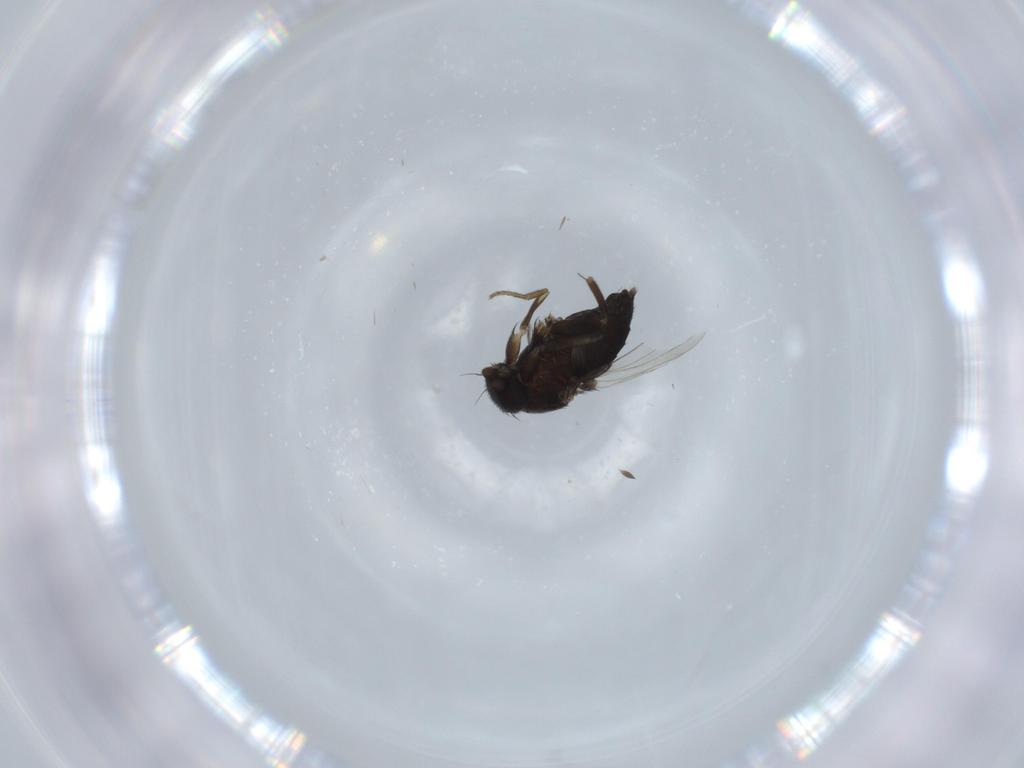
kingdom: Animalia
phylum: Arthropoda
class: Insecta
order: Diptera
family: Phoridae
